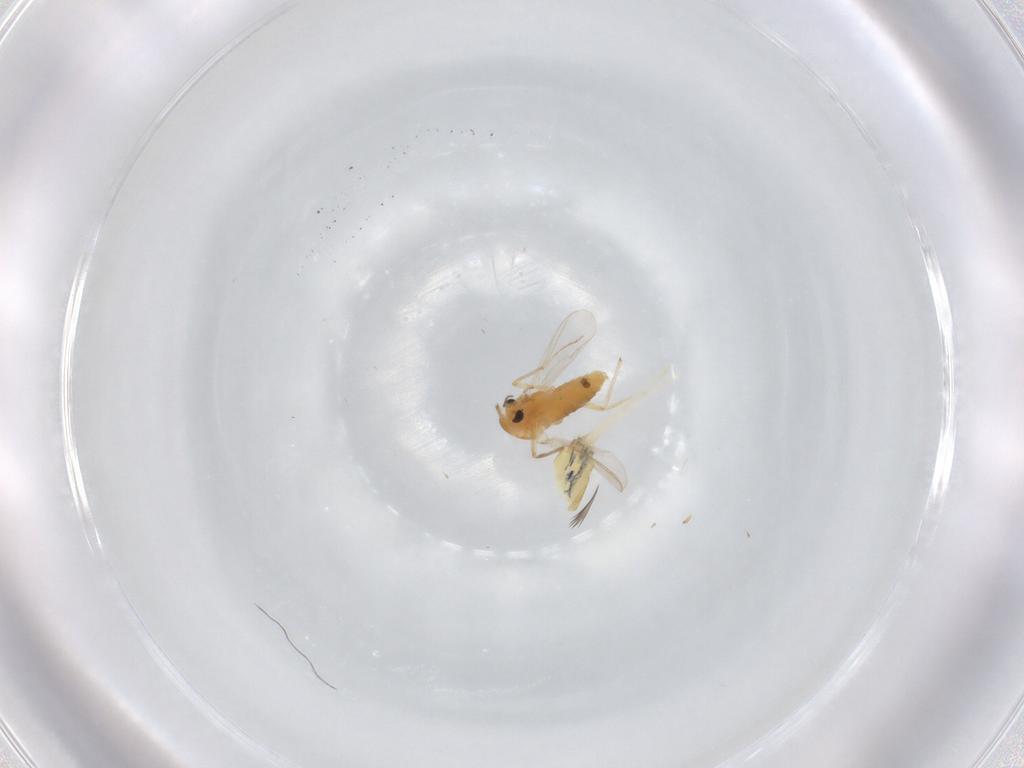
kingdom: Animalia
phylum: Arthropoda
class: Insecta
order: Diptera
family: Chironomidae
